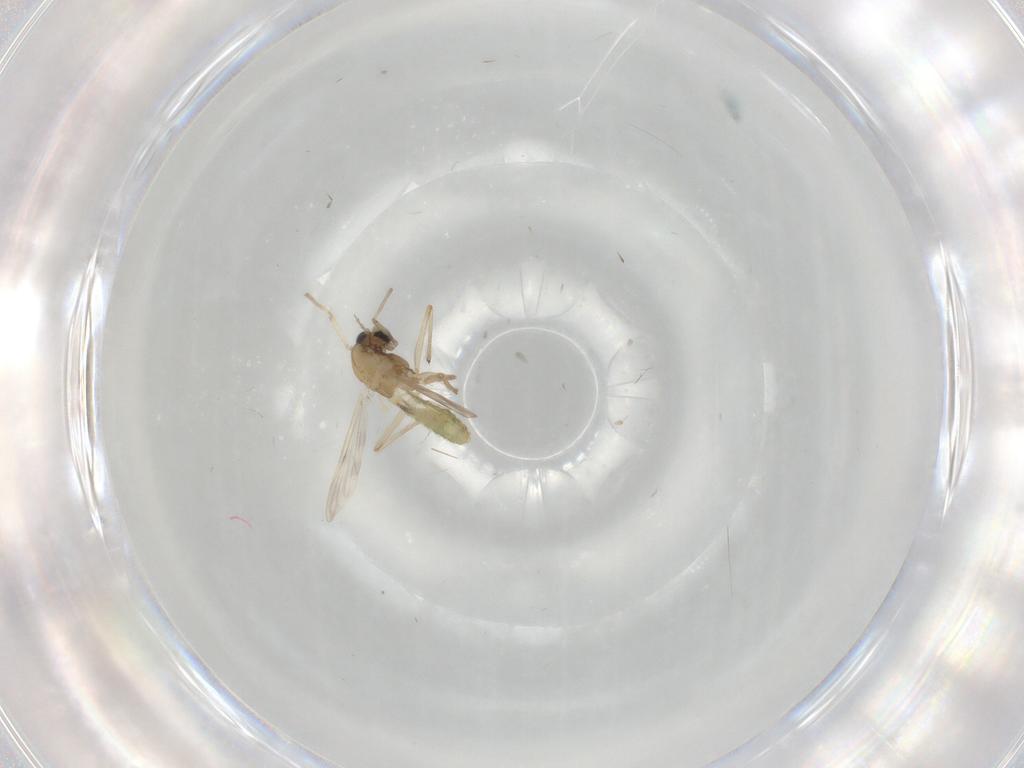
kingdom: Animalia
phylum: Arthropoda
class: Insecta
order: Diptera
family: Chironomidae
